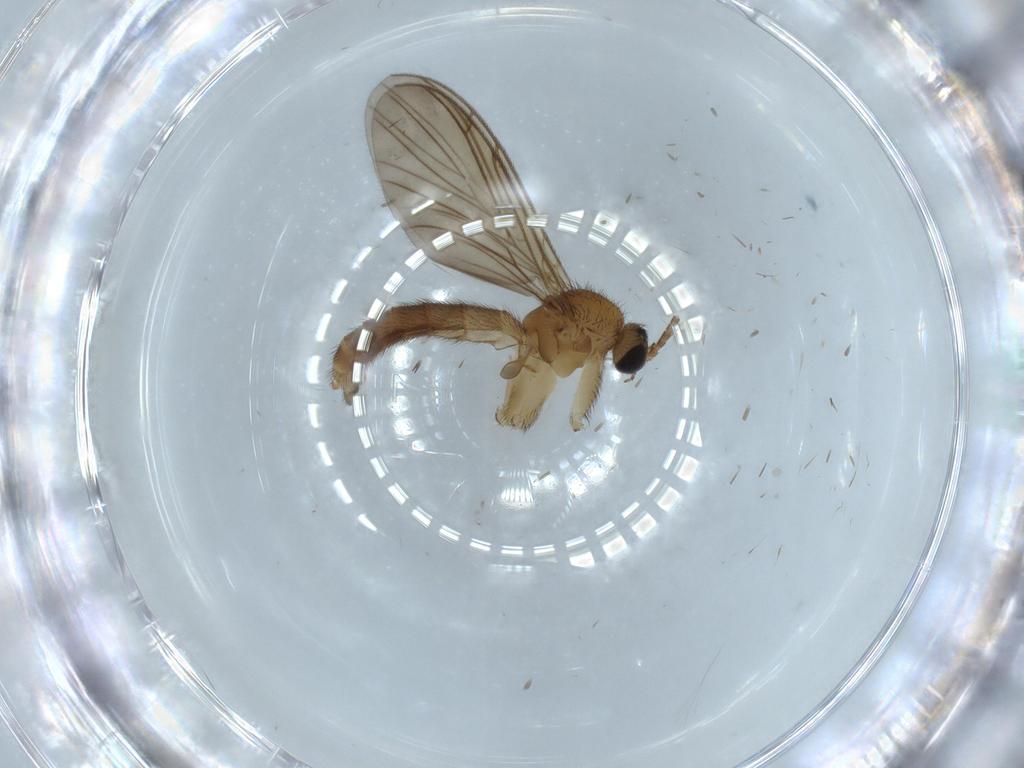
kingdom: Animalia
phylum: Arthropoda
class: Insecta
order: Diptera
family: Keroplatidae
